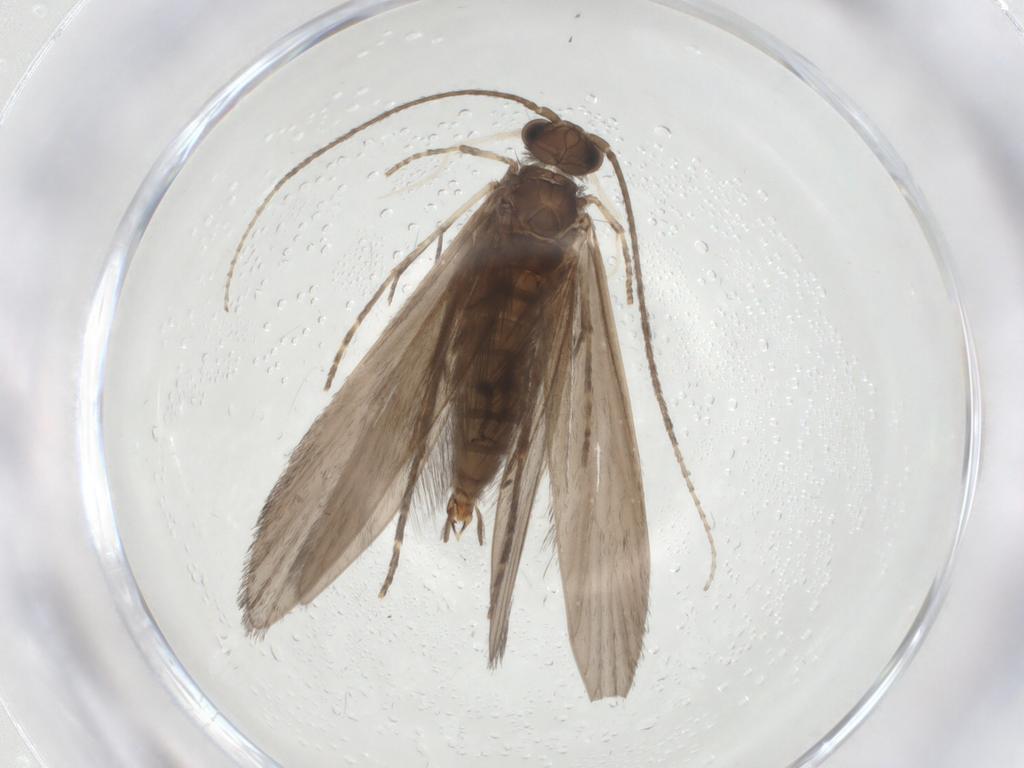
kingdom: Animalia
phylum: Arthropoda
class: Insecta
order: Trichoptera
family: Xiphocentronidae
